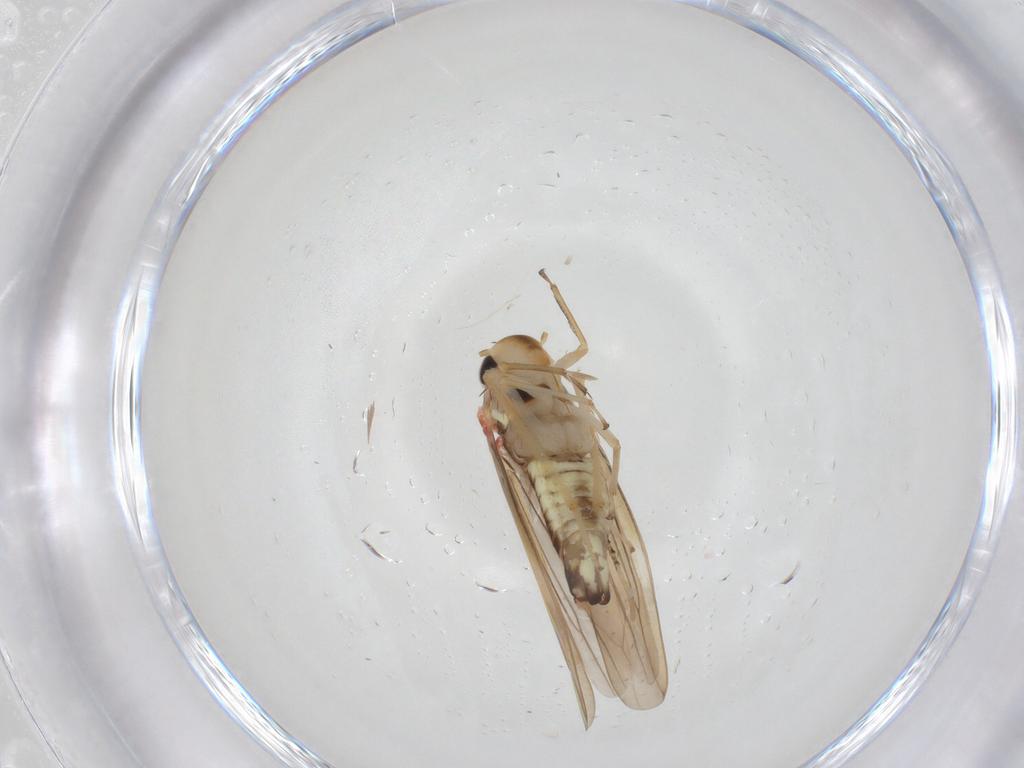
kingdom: Animalia
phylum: Arthropoda
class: Insecta
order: Hemiptera
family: Cicadellidae
